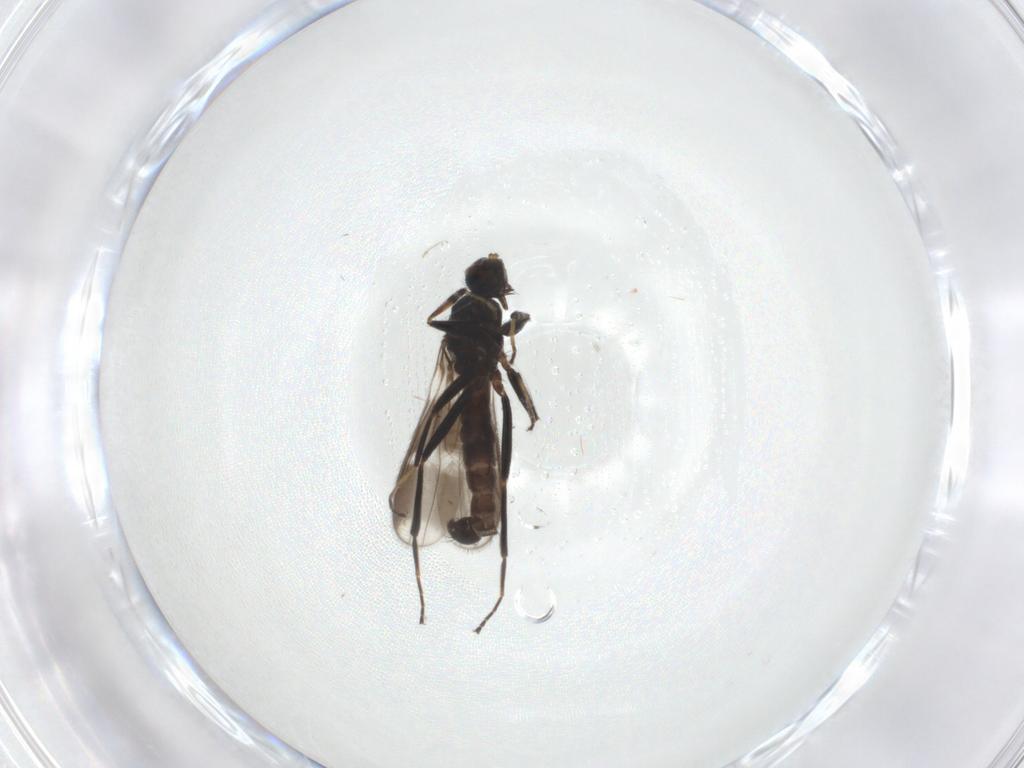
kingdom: Animalia
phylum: Arthropoda
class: Insecta
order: Diptera
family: Hybotidae
